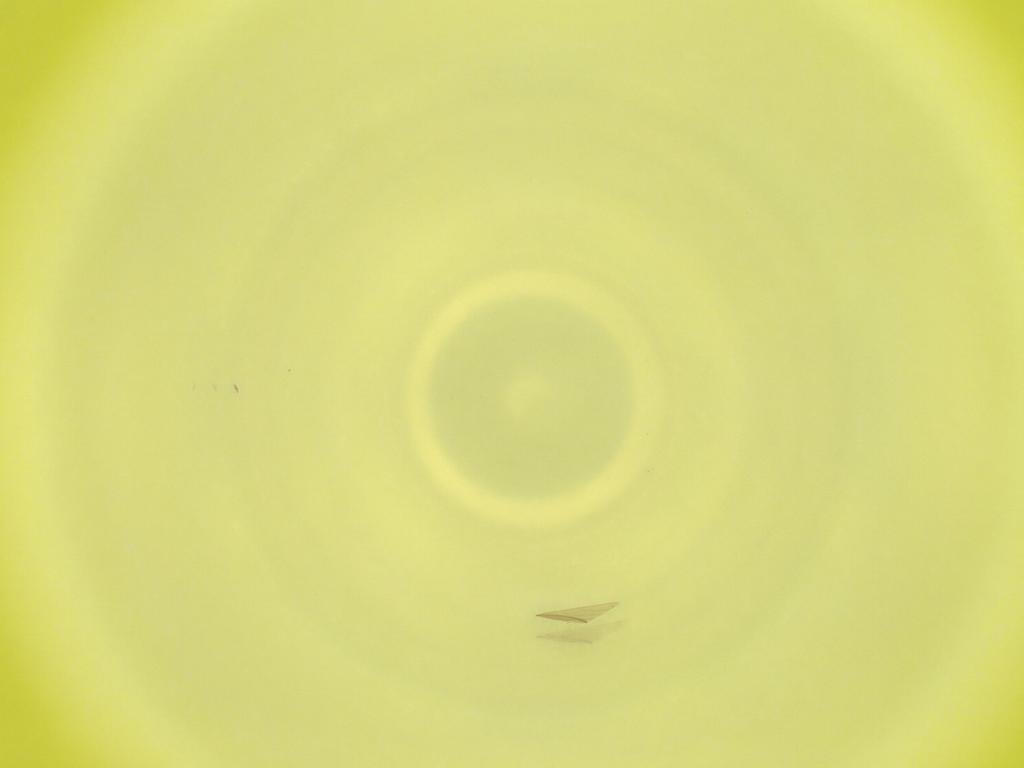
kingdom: Animalia
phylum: Arthropoda
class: Insecta
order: Diptera
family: Cecidomyiidae
